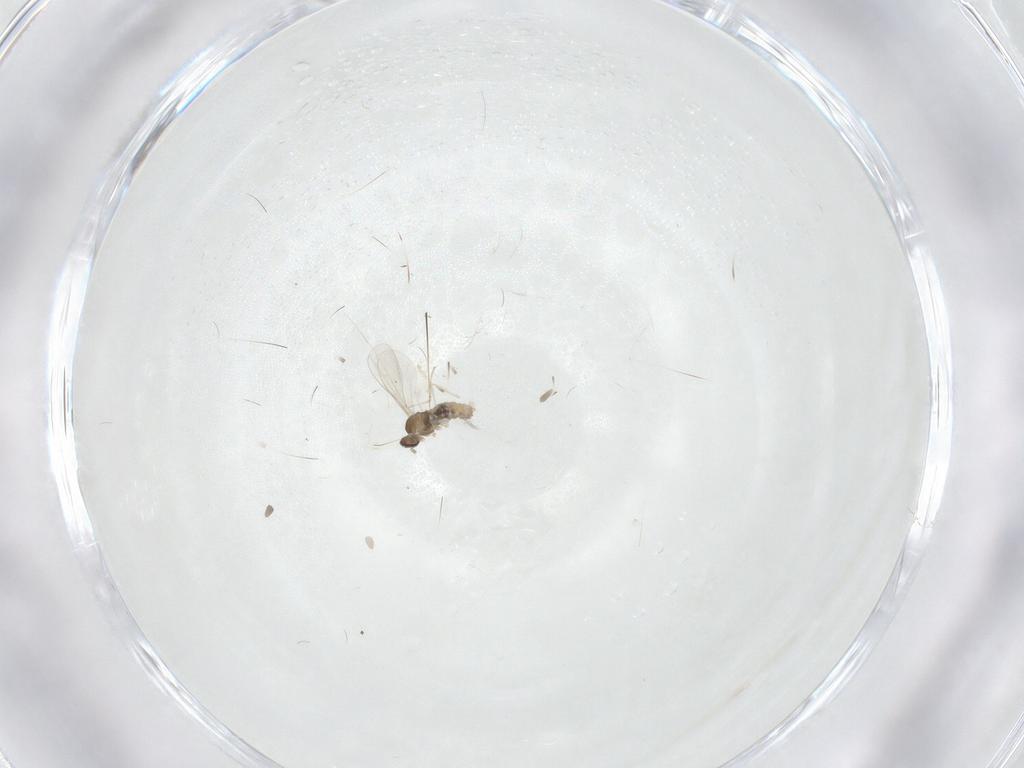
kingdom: Animalia
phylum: Arthropoda
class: Insecta
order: Diptera
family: Cecidomyiidae
